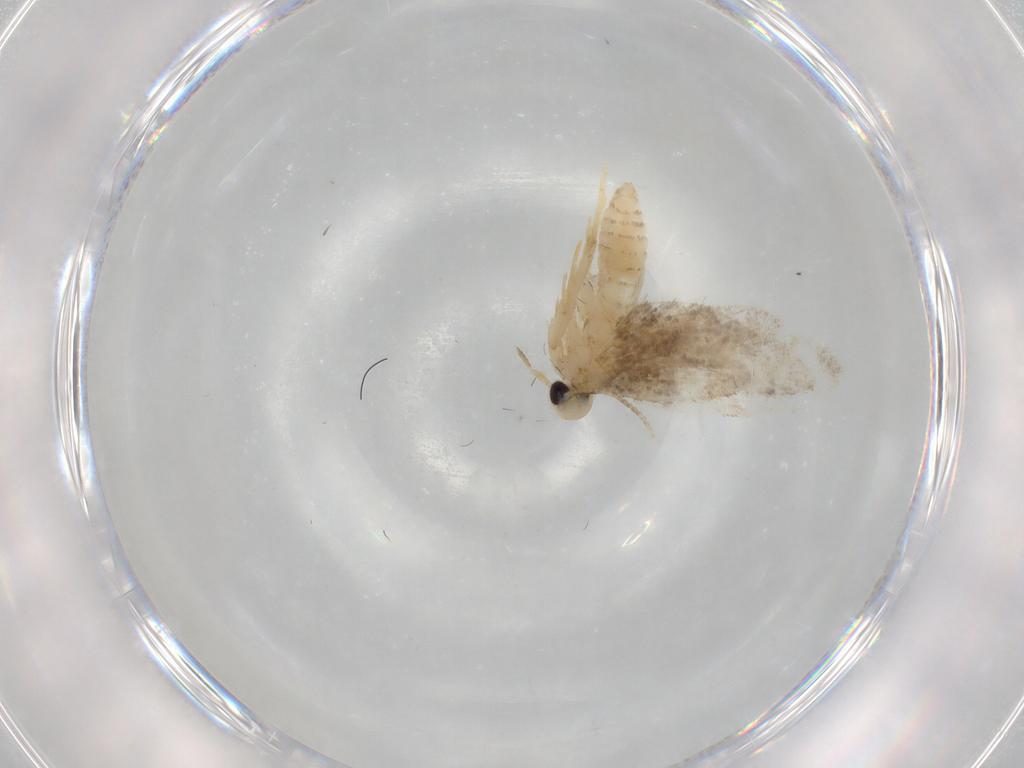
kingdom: Animalia
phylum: Arthropoda
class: Insecta
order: Lepidoptera
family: Psychidae
